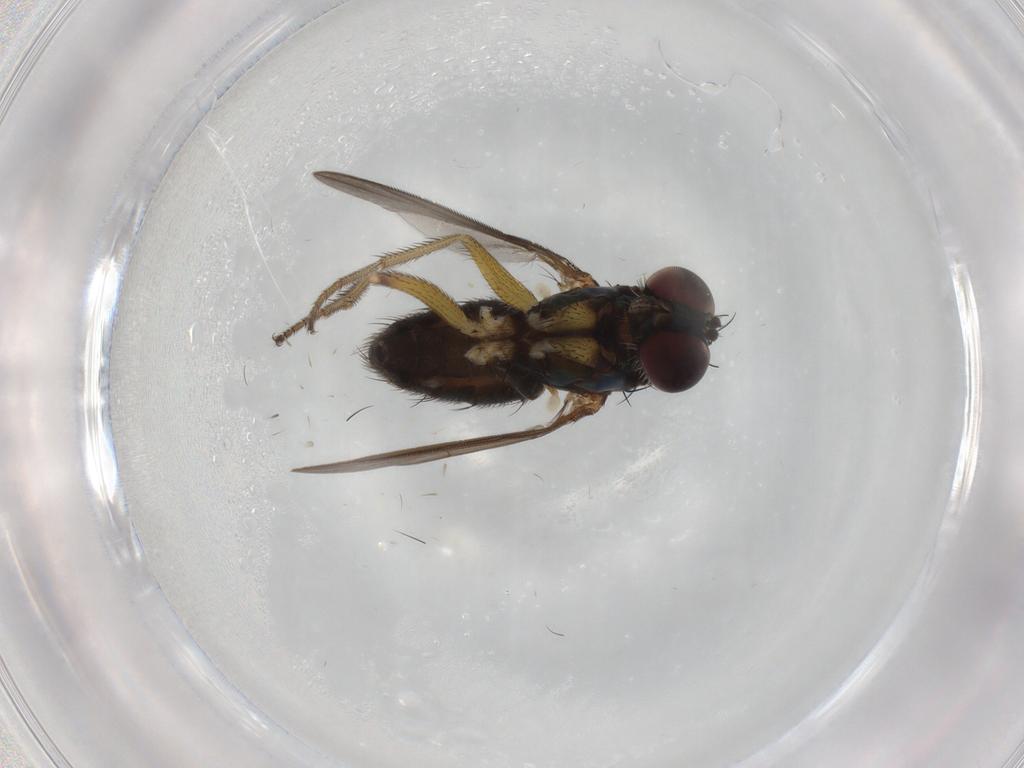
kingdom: Animalia
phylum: Arthropoda
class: Insecta
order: Diptera
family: Dolichopodidae
